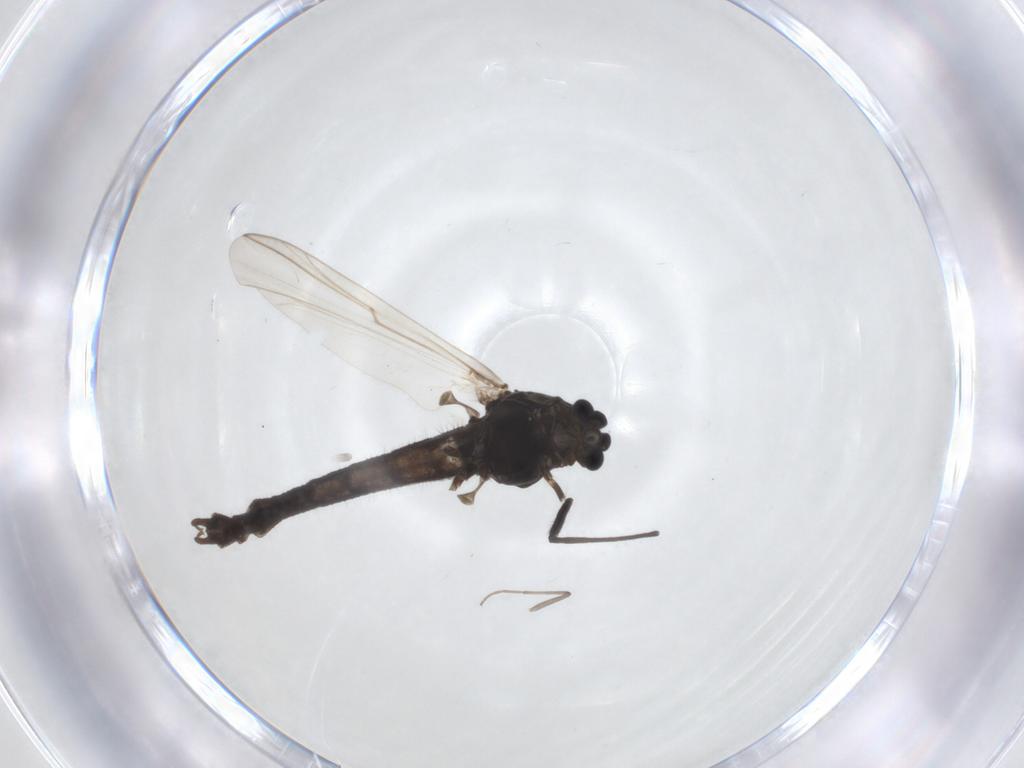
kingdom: Animalia
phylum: Arthropoda
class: Insecta
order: Diptera
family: Chironomidae
